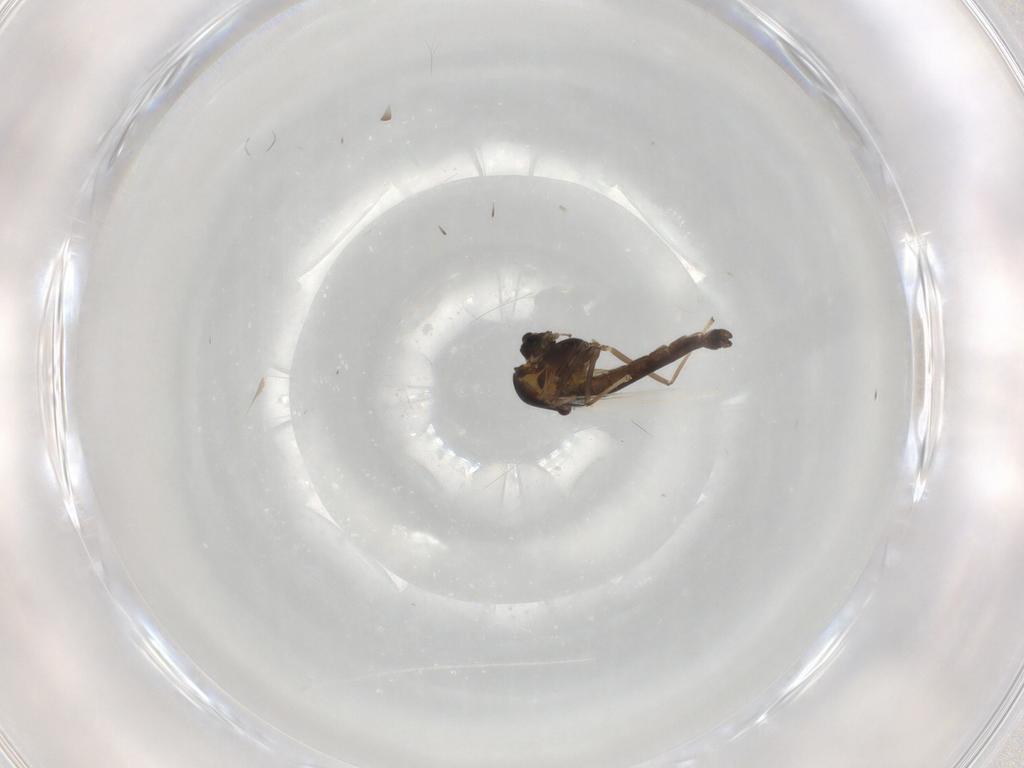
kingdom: Animalia
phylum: Arthropoda
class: Insecta
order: Diptera
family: Chironomidae
